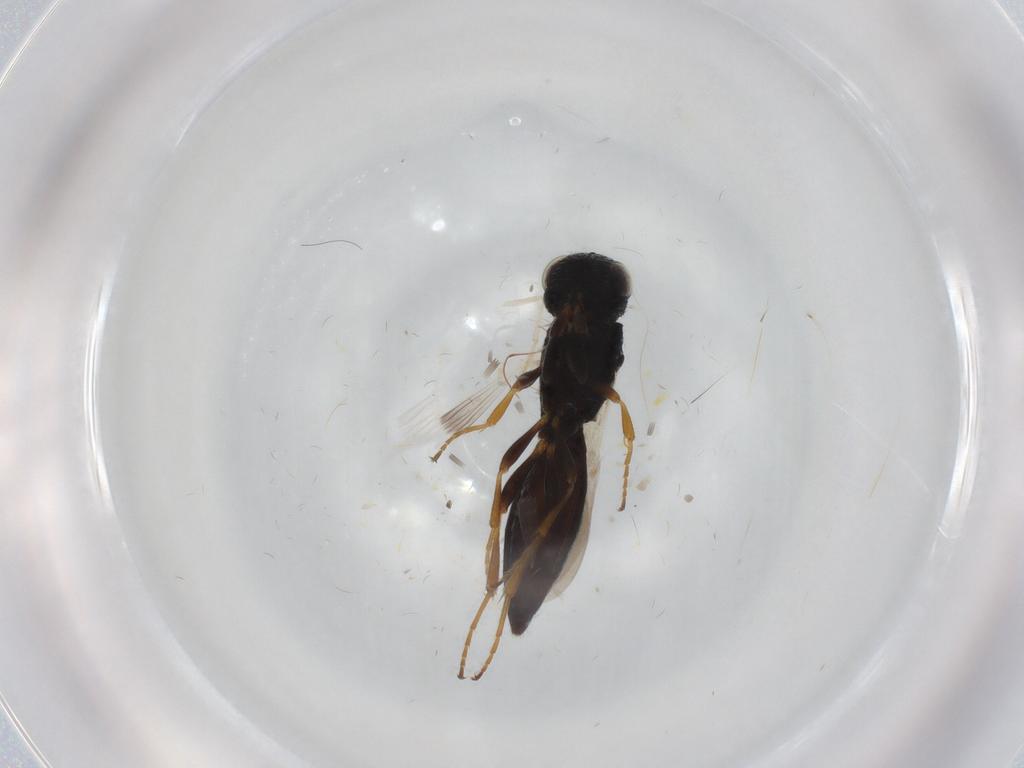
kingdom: Animalia
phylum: Arthropoda
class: Insecta
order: Hymenoptera
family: Scelionidae
